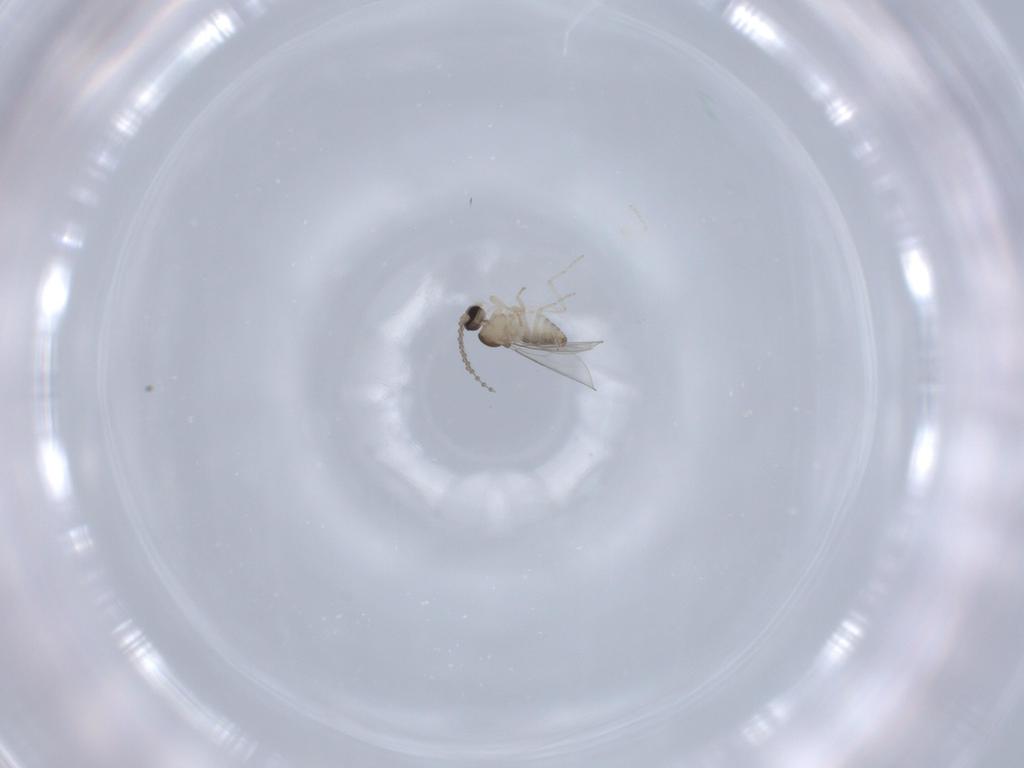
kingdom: Animalia
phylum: Arthropoda
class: Insecta
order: Diptera
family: Cecidomyiidae
